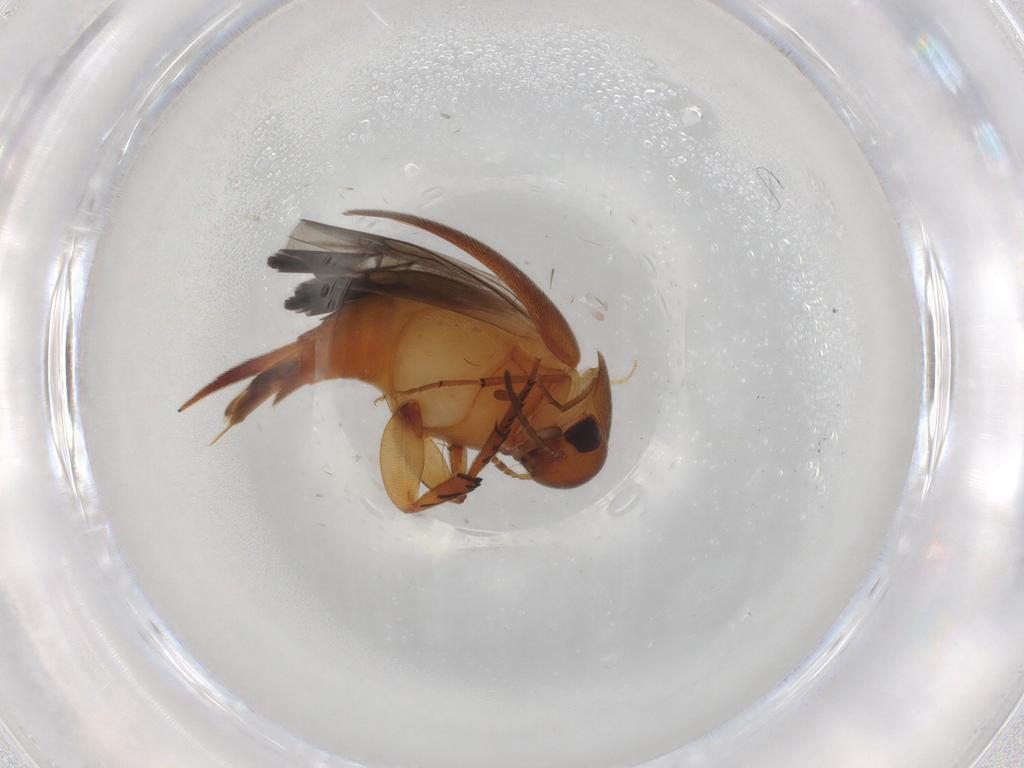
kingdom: Animalia
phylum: Arthropoda
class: Insecta
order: Coleoptera
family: Mordellidae
